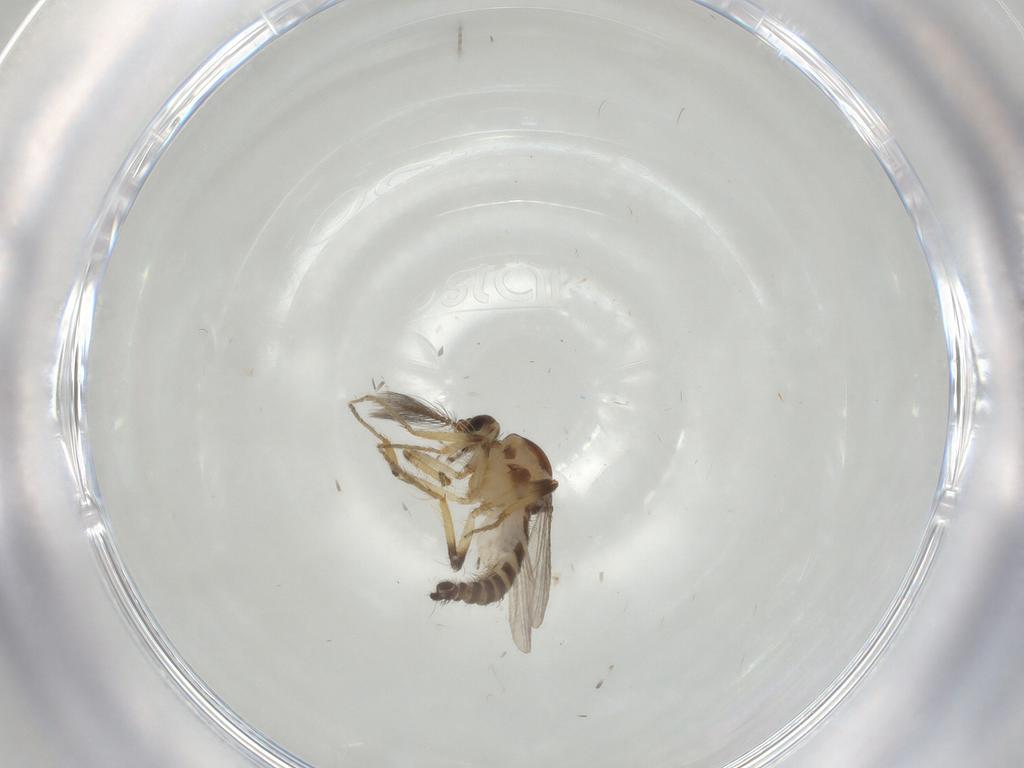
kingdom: Animalia
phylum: Arthropoda
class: Insecta
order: Diptera
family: Ceratopogonidae
